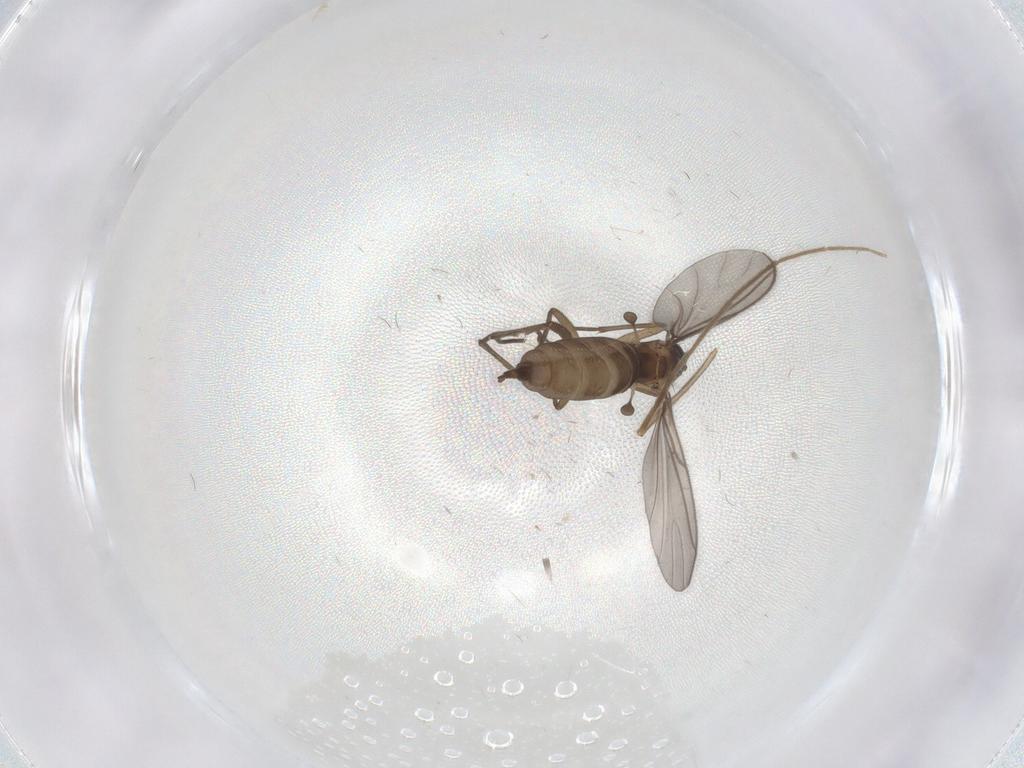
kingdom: Animalia
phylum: Arthropoda
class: Insecta
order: Diptera
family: Sciaridae
